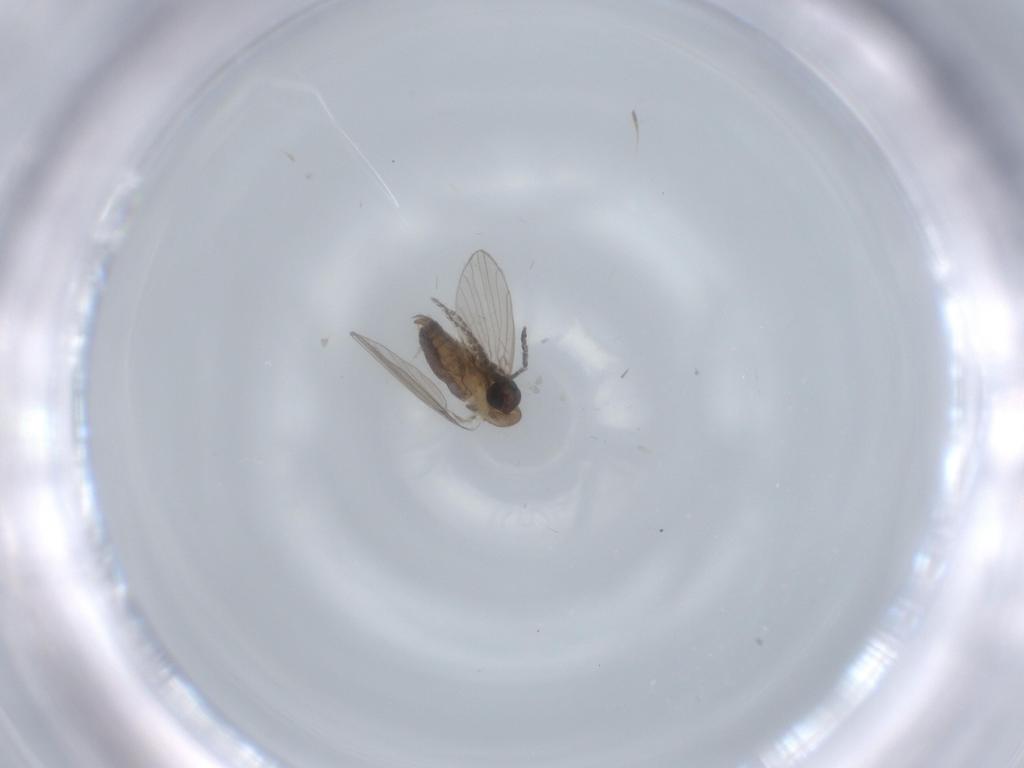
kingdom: Animalia
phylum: Arthropoda
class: Insecta
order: Diptera
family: Psychodidae
